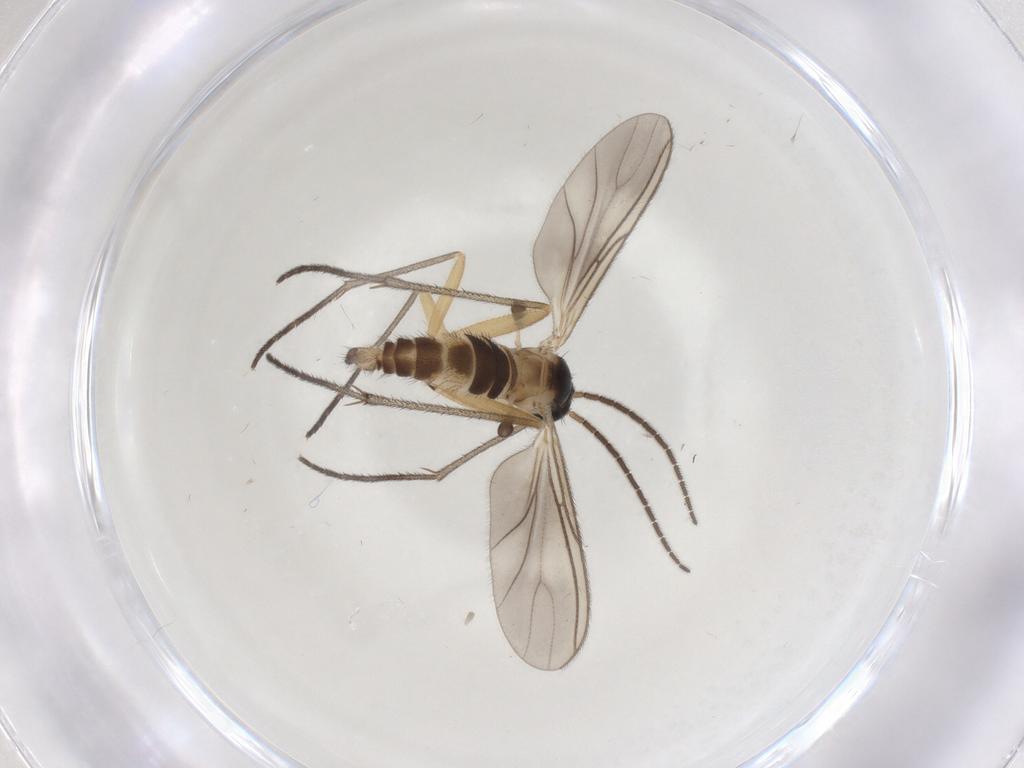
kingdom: Animalia
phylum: Arthropoda
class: Insecta
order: Diptera
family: Sciaridae
